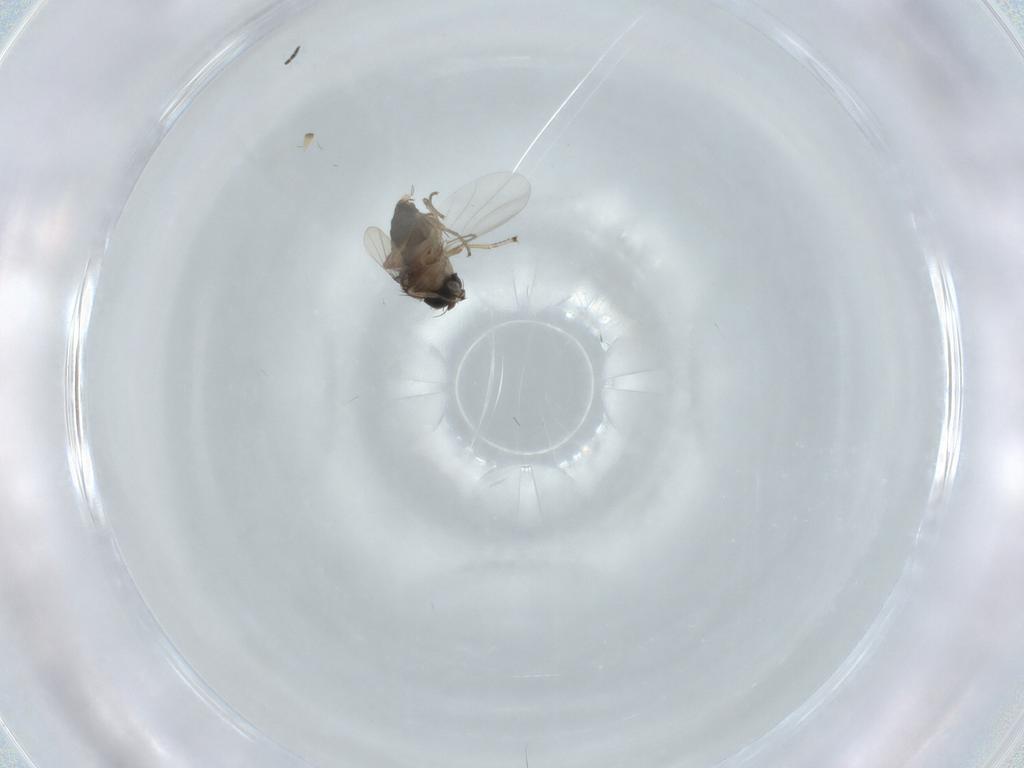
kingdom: Animalia
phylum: Arthropoda
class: Insecta
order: Diptera
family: Phoridae
